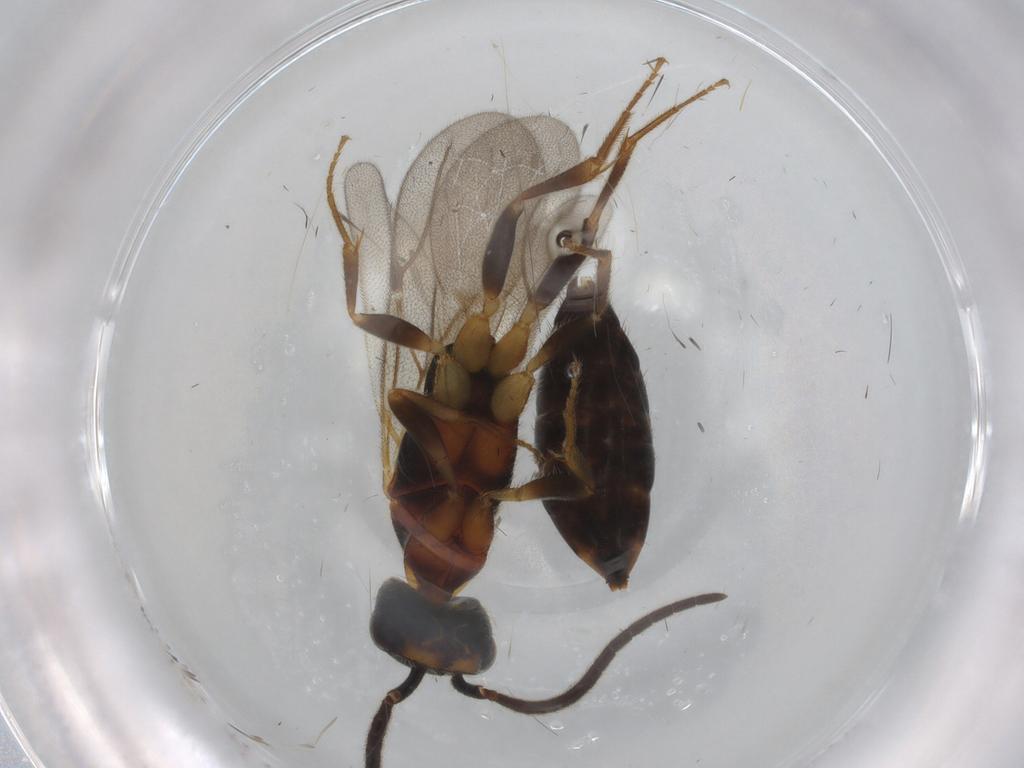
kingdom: Animalia
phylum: Arthropoda
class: Insecta
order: Hymenoptera
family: Bethylidae
